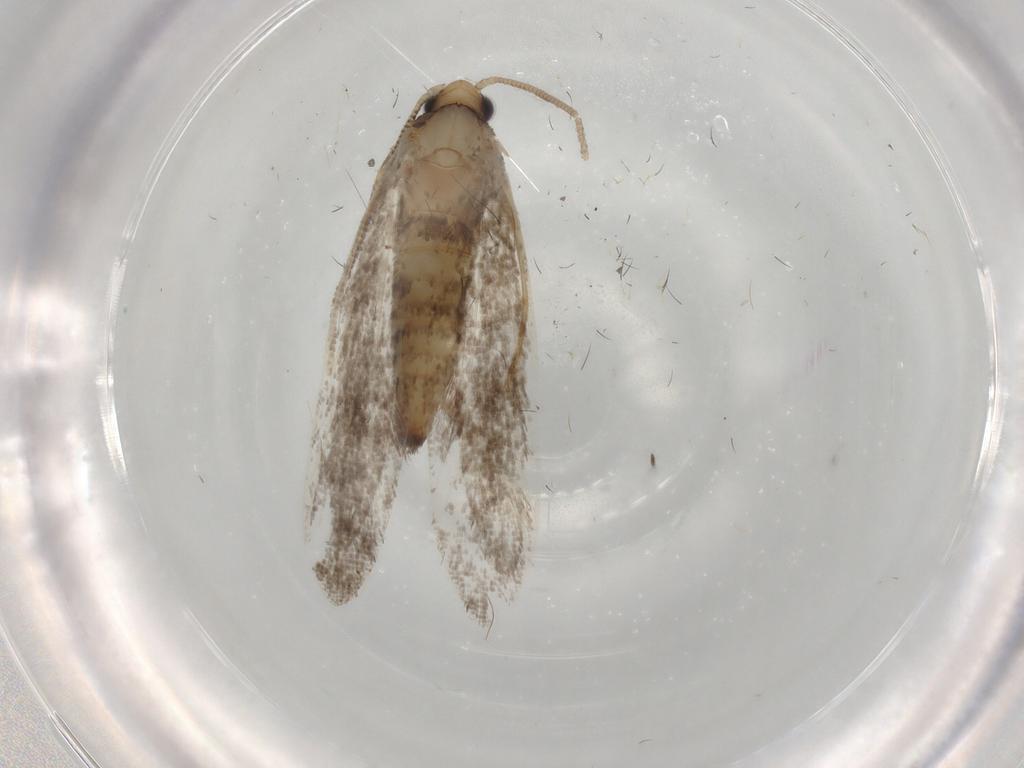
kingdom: Animalia
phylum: Arthropoda
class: Insecta
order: Lepidoptera
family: Tineidae
